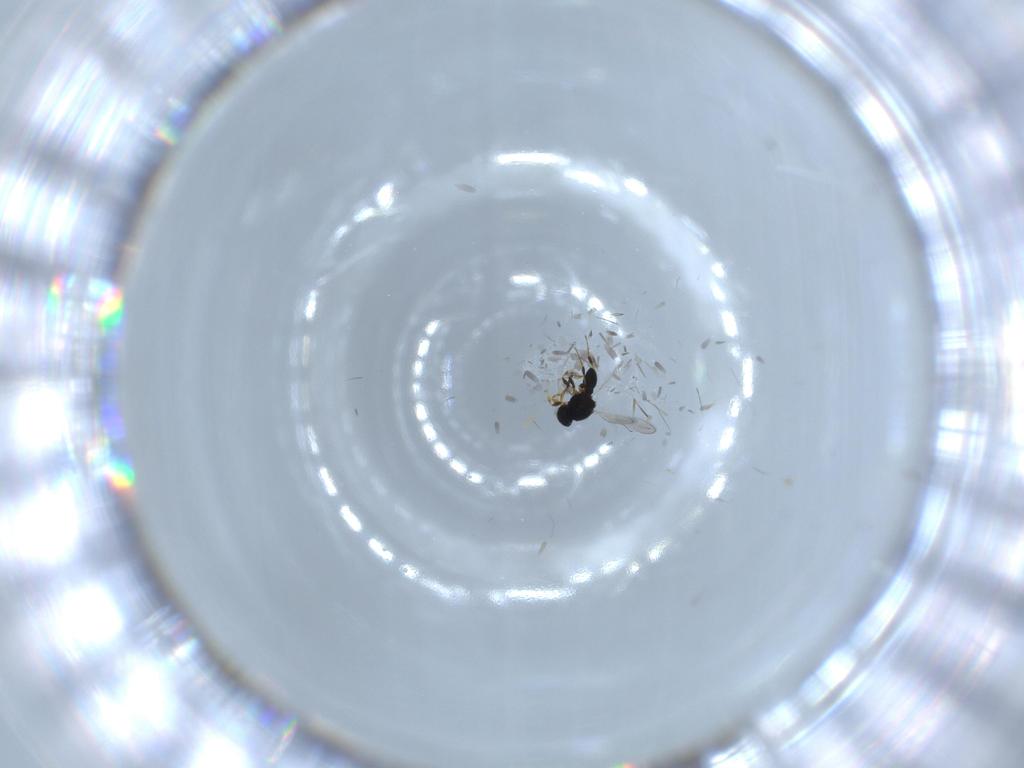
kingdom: Animalia
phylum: Arthropoda
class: Insecta
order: Hymenoptera
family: Platygastridae
